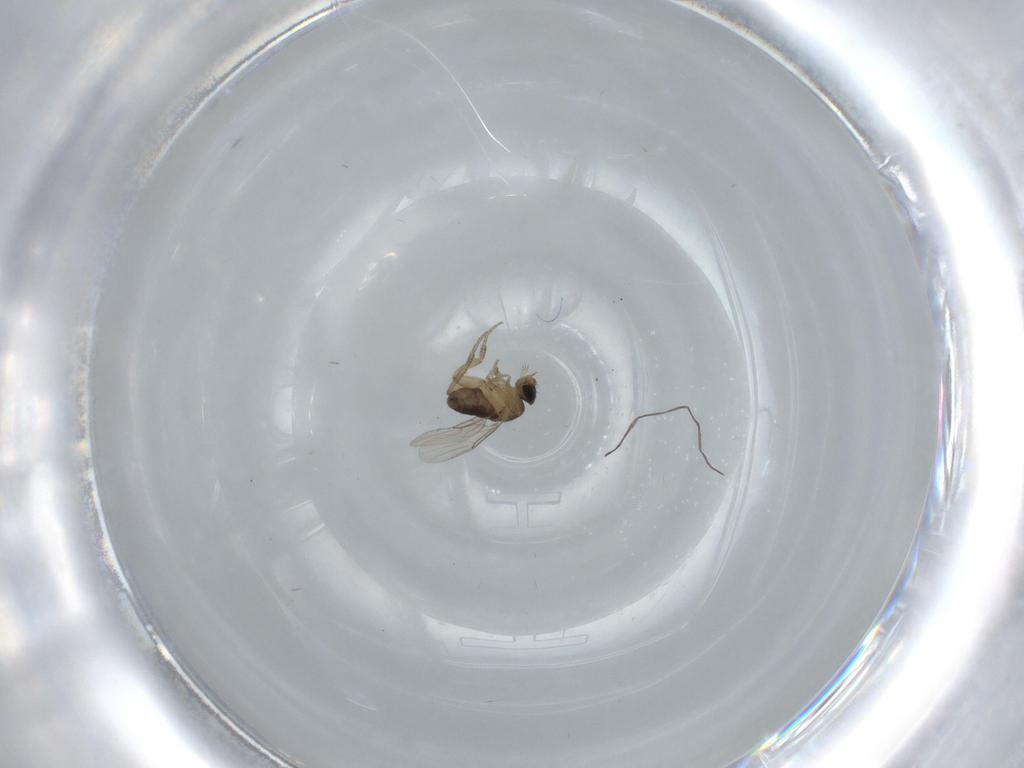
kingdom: Animalia
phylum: Arthropoda
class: Insecta
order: Diptera
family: Phoridae
